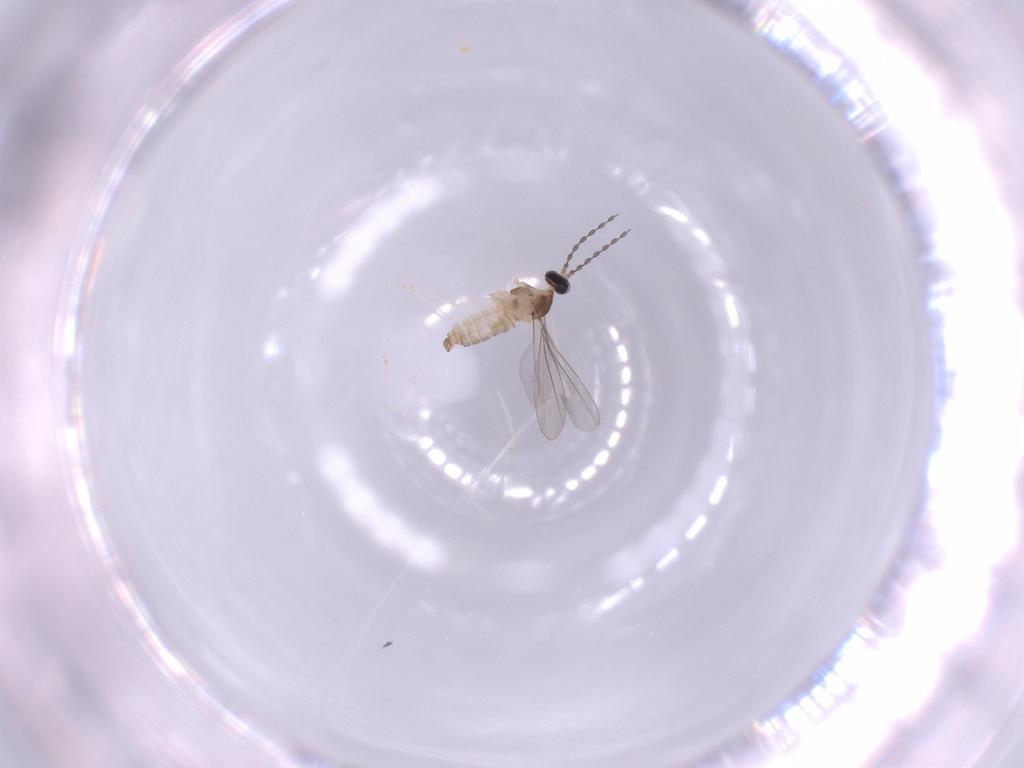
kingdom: Animalia
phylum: Arthropoda
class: Insecta
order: Diptera
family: Cecidomyiidae
